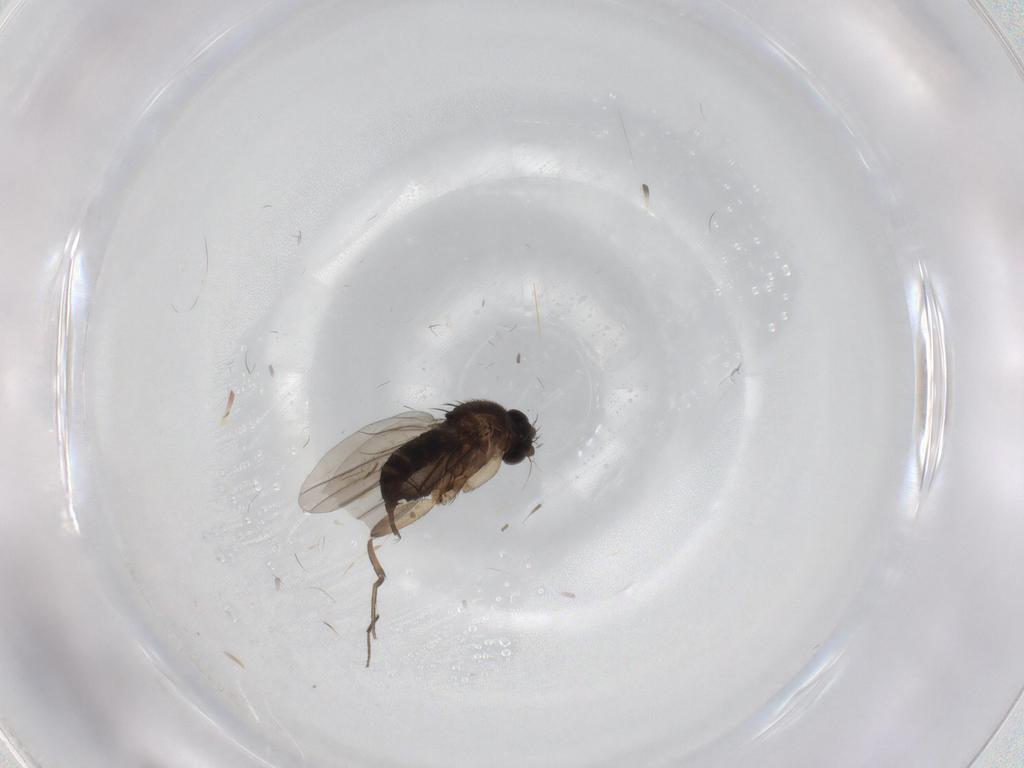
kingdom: Animalia
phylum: Arthropoda
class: Insecta
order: Diptera
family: Phoridae
